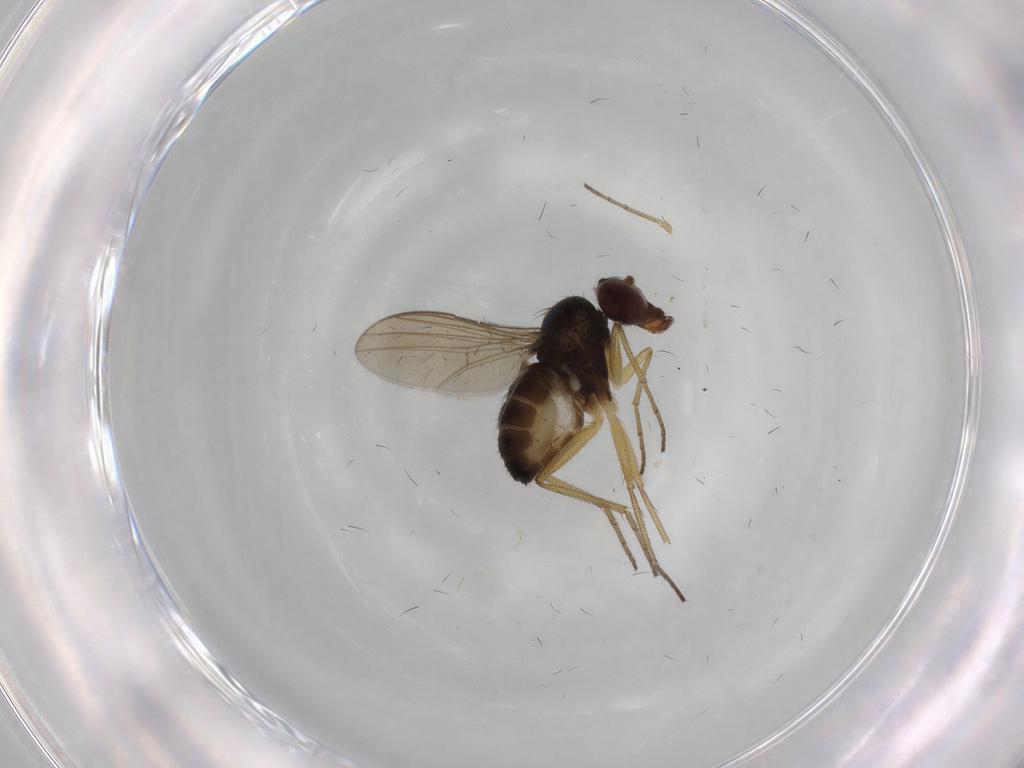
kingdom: Animalia
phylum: Arthropoda
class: Insecta
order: Diptera
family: Dolichopodidae
